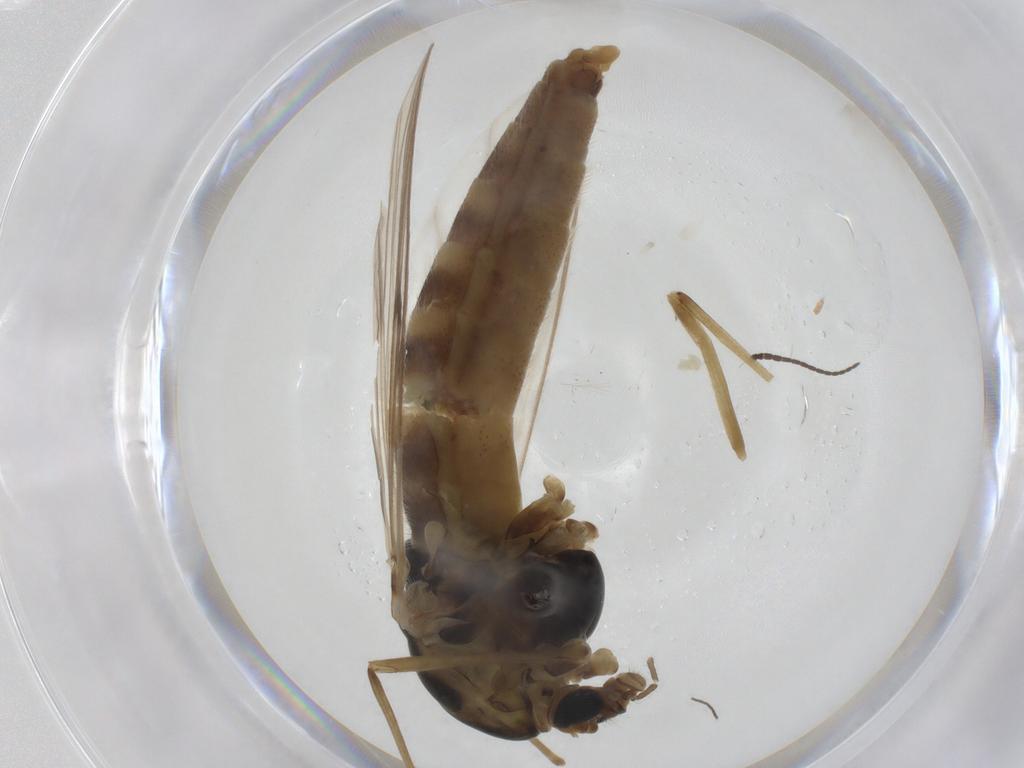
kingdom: Animalia
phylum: Arthropoda
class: Insecta
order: Diptera
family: Chironomidae
